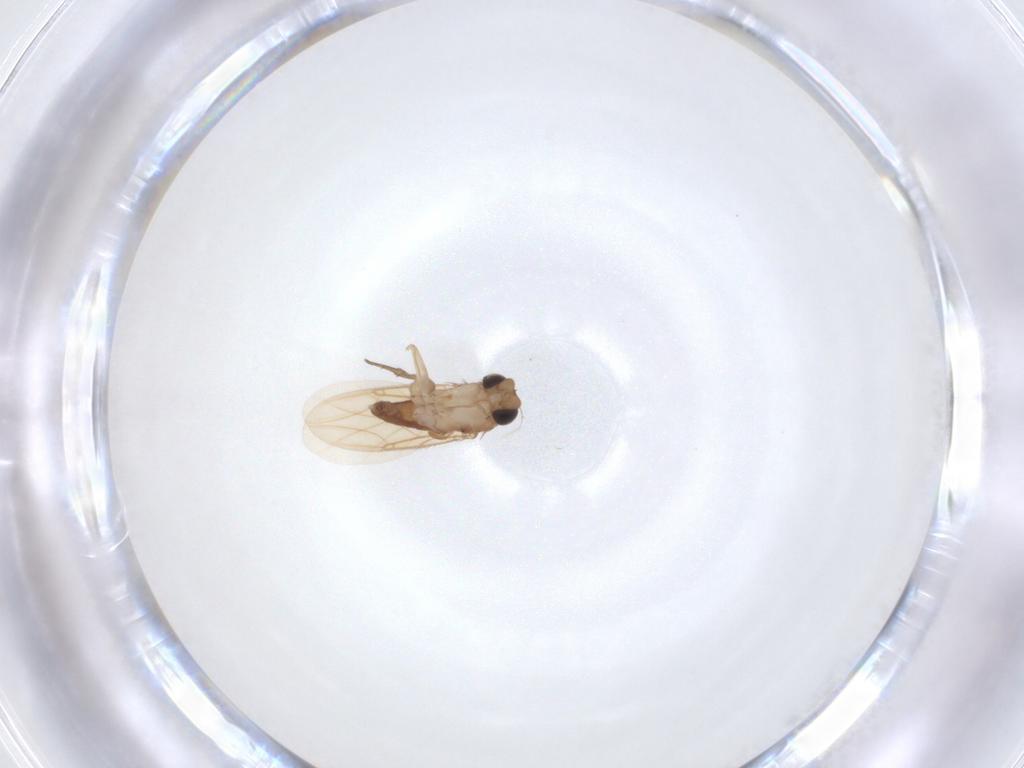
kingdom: Animalia
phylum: Arthropoda
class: Insecta
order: Diptera
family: Phoridae
